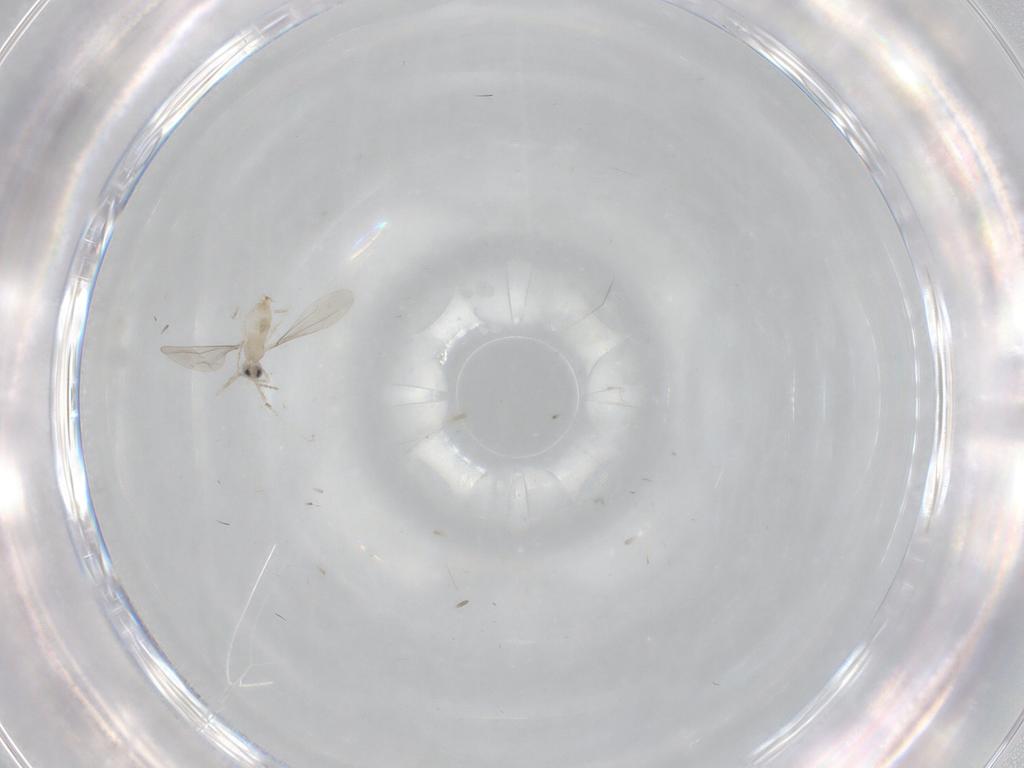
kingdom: Animalia
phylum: Arthropoda
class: Insecta
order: Diptera
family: Cecidomyiidae
